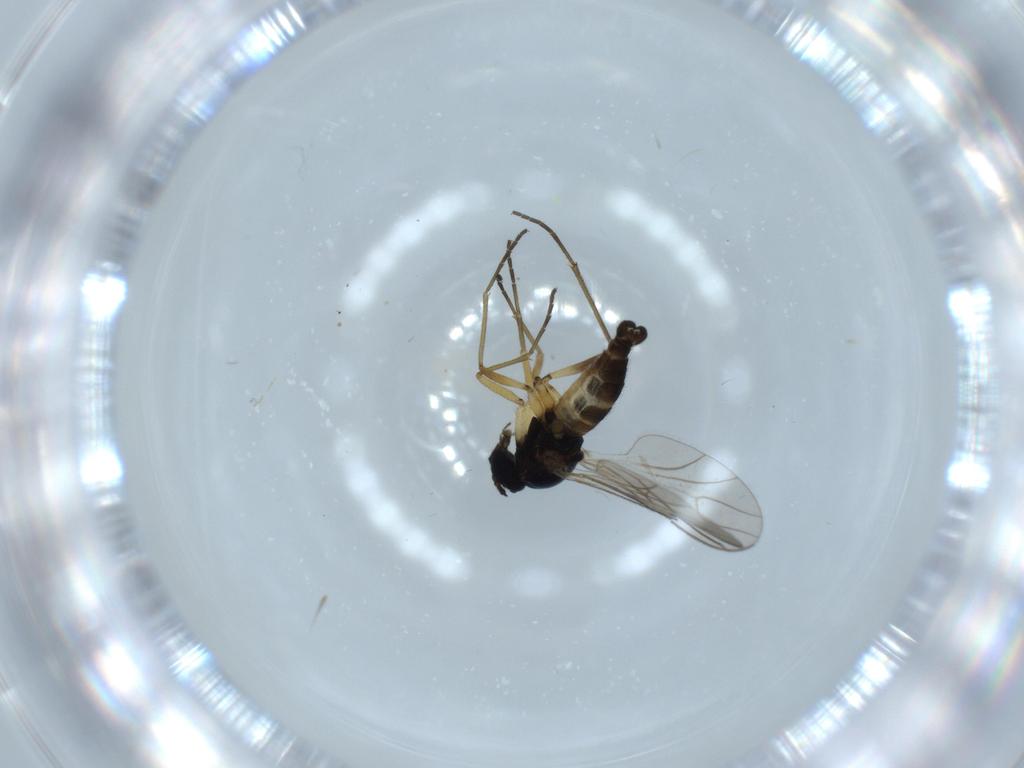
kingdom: Animalia
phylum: Arthropoda
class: Insecta
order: Diptera
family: Sciaridae
